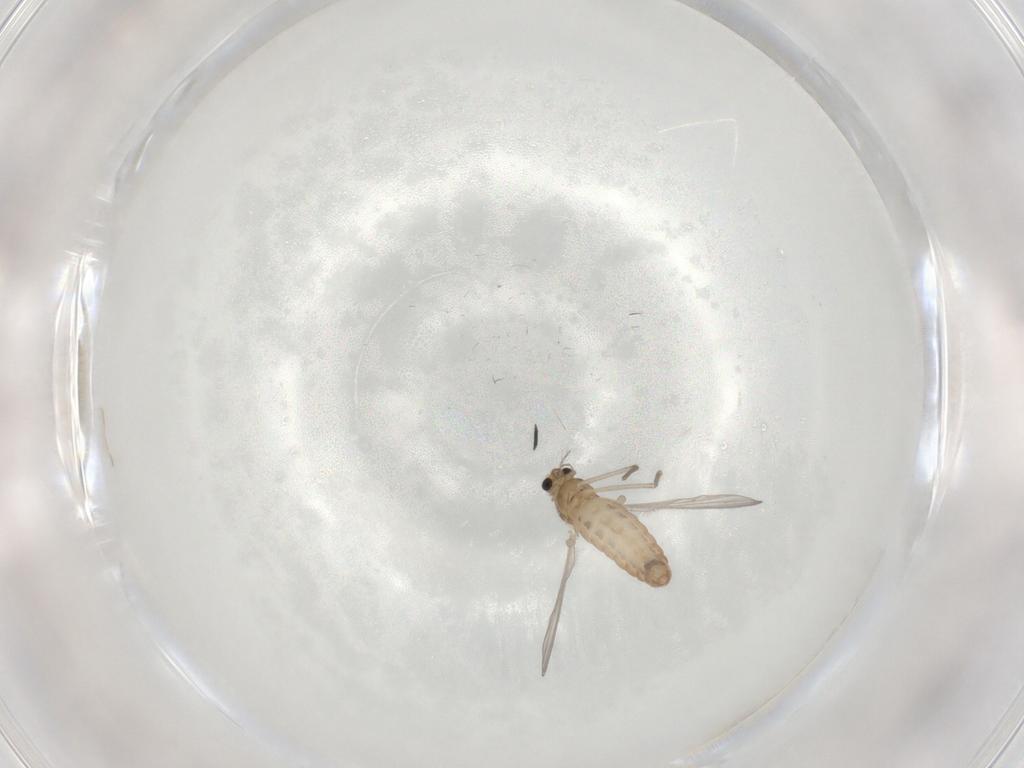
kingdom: Animalia
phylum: Arthropoda
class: Insecta
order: Diptera
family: Chironomidae
